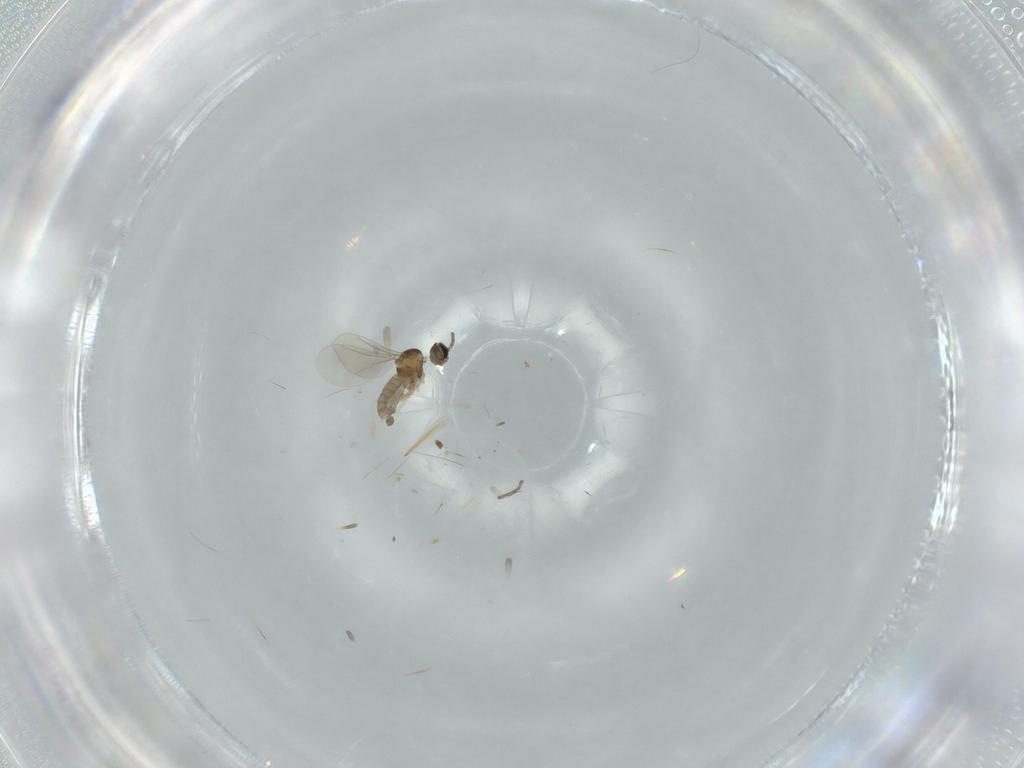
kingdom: Animalia
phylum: Arthropoda
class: Insecta
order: Diptera
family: Cecidomyiidae
